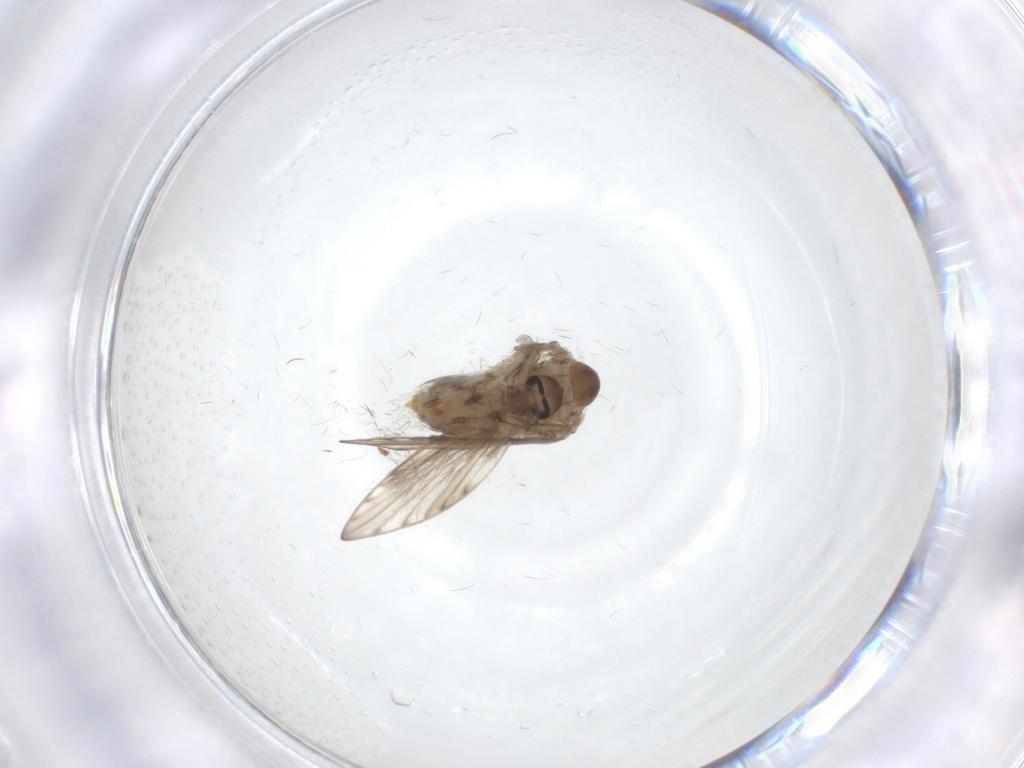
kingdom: Animalia
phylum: Arthropoda
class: Insecta
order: Diptera
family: Psychodidae
